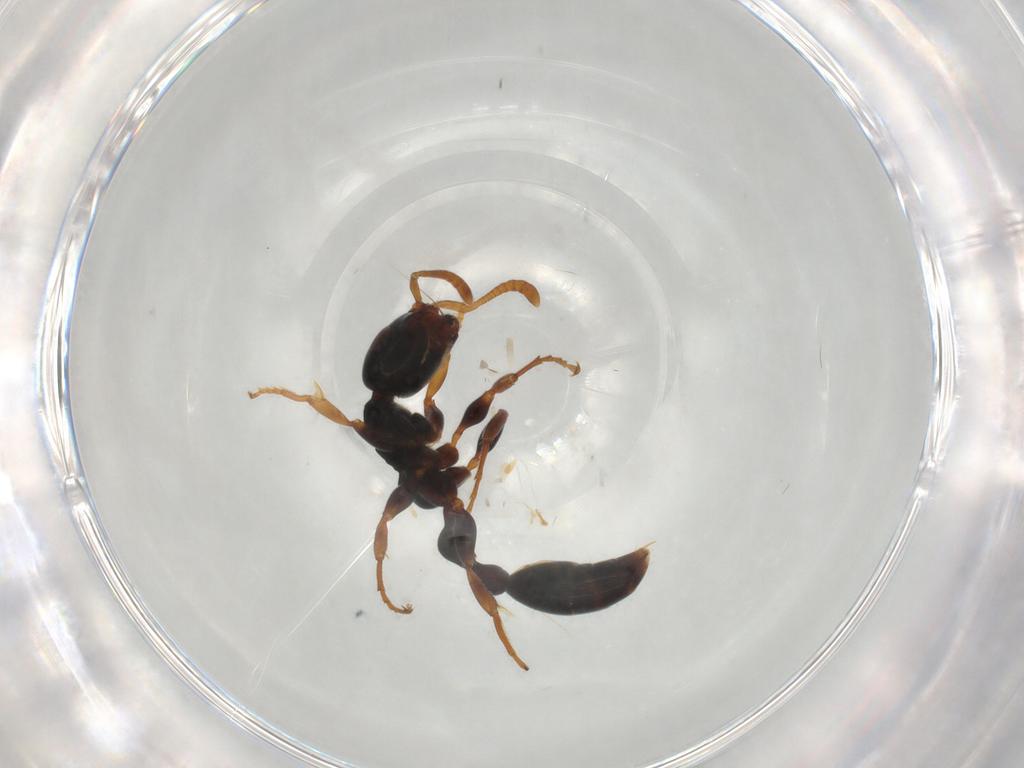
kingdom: Animalia
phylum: Arthropoda
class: Insecta
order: Hymenoptera
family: Formicidae
